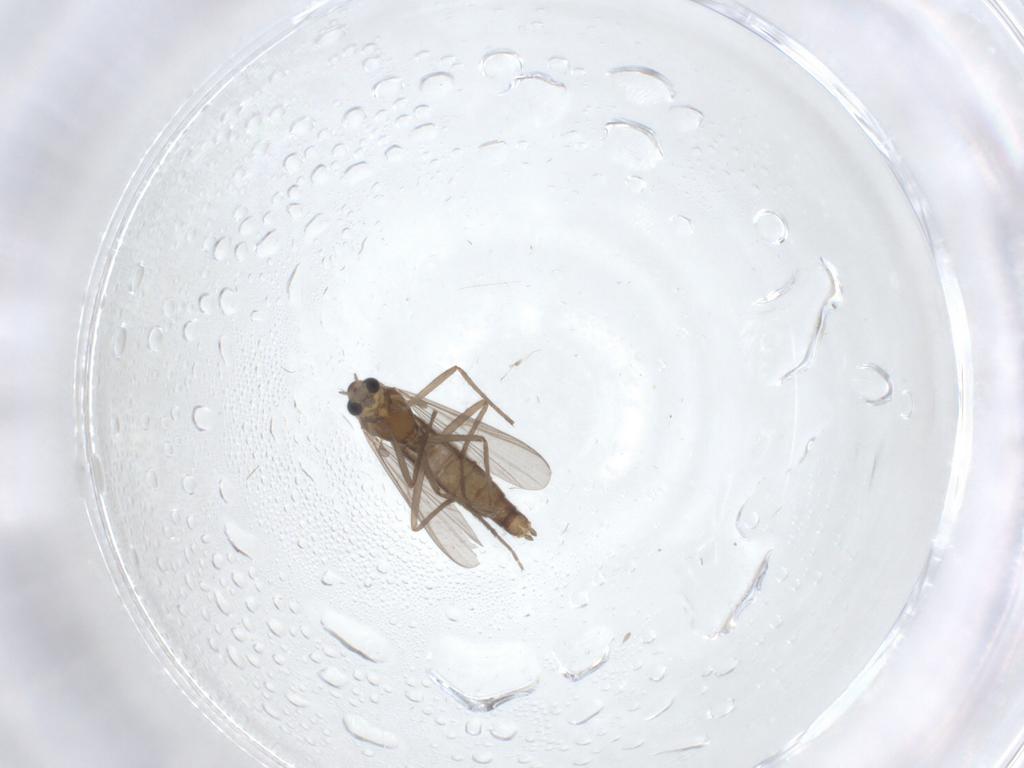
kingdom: Animalia
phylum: Arthropoda
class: Insecta
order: Diptera
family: Chironomidae
